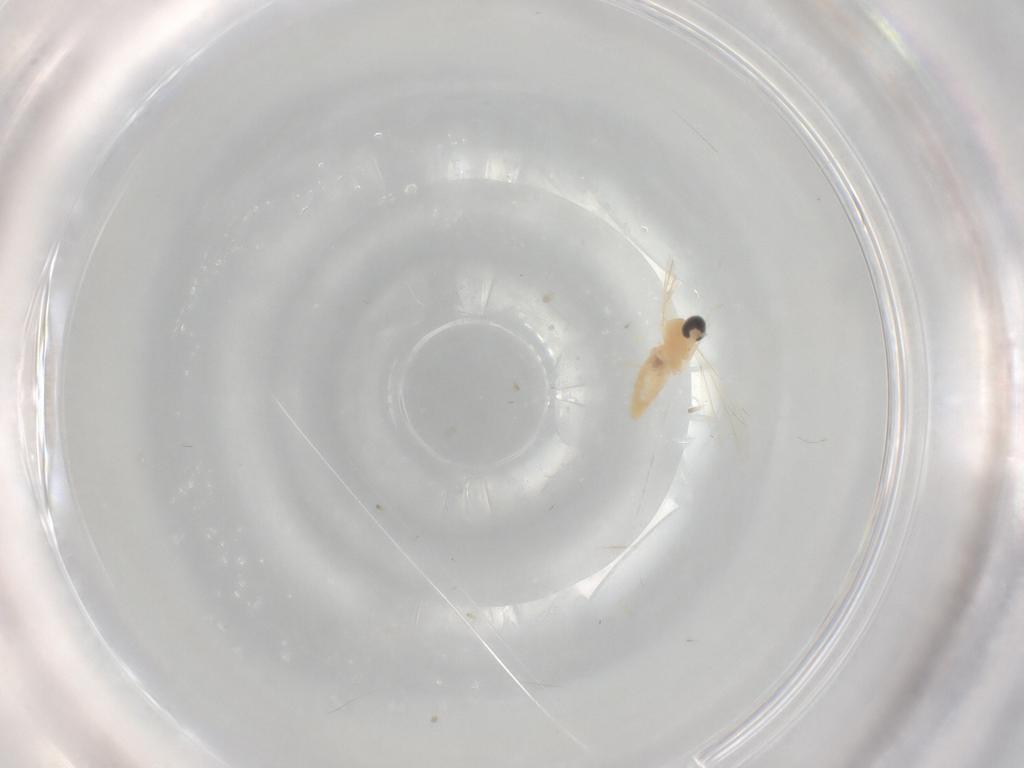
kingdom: Animalia
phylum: Arthropoda
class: Insecta
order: Diptera
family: Cecidomyiidae
